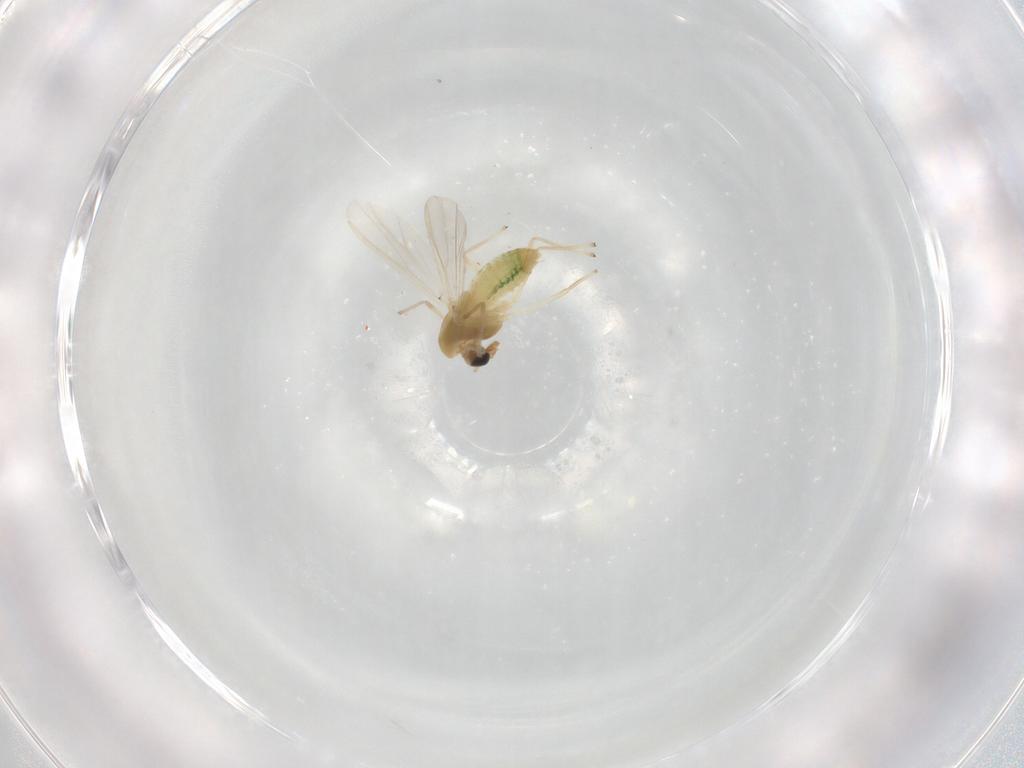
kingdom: Animalia
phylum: Arthropoda
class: Insecta
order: Diptera
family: Chironomidae
